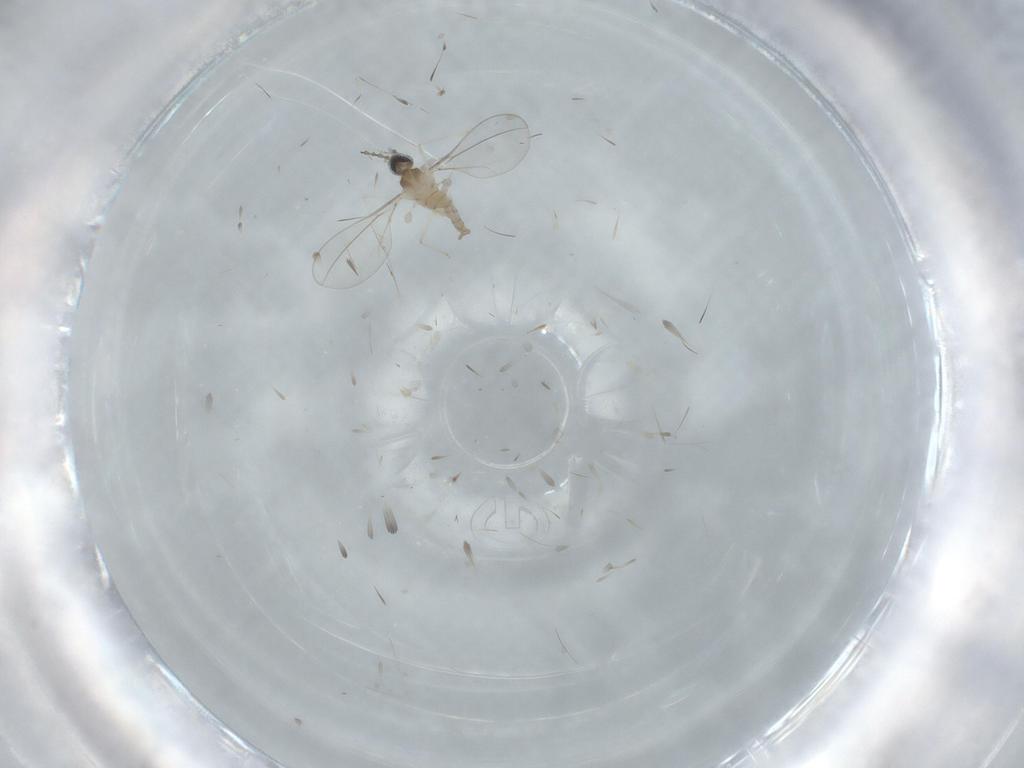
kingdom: Animalia
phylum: Arthropoda
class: Insecta
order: Diptera
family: Cecidomyiidae
